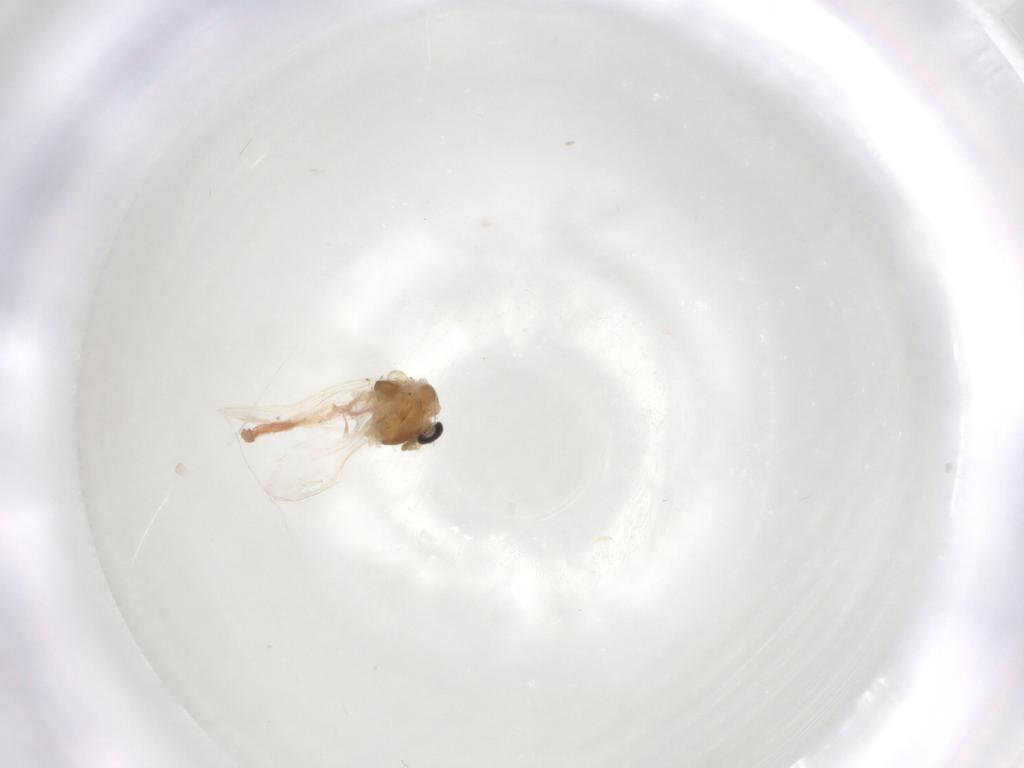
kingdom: Animalia
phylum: Arthropoda
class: Insecta
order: Diptera
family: Chironomidae
